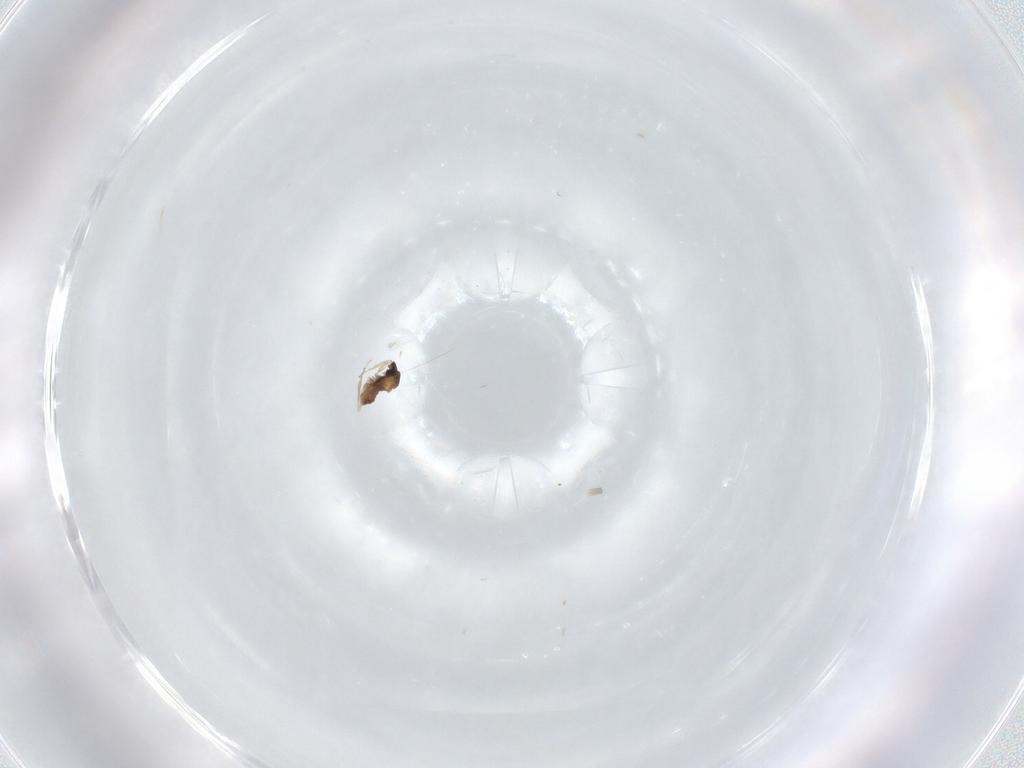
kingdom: Animalia
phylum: Arthropoda
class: Insecta
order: Diptera
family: Cecidomyiidae
